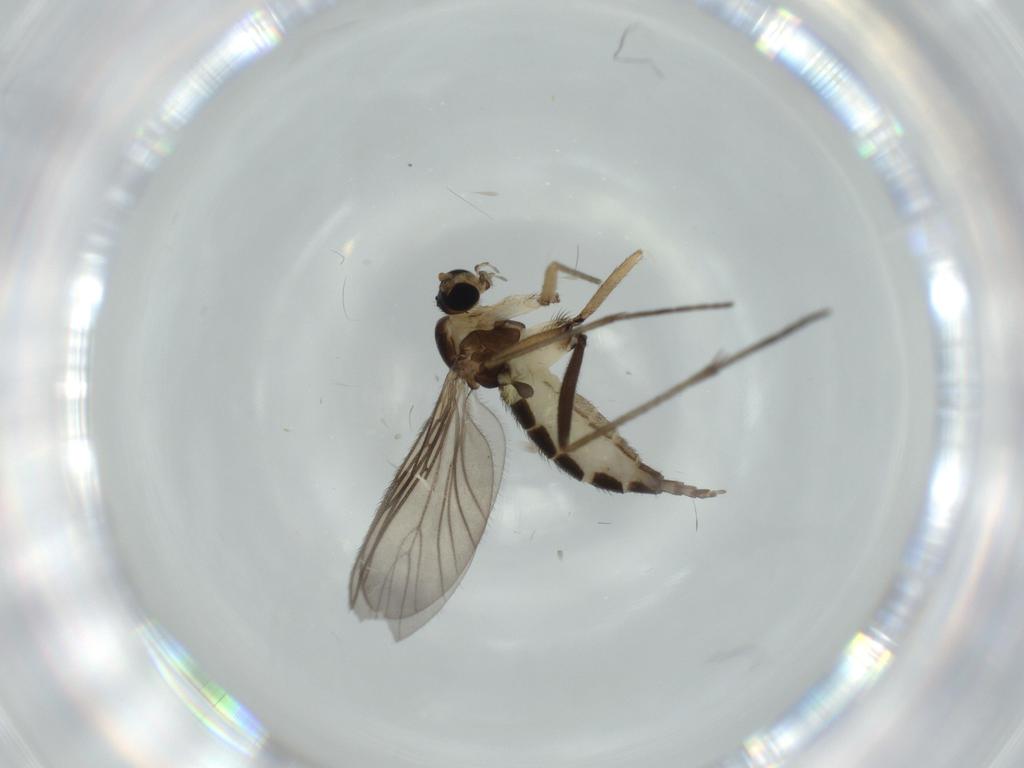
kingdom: Animalia
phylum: Arthropoda
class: Insecta
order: Diptera
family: Sciaridae
